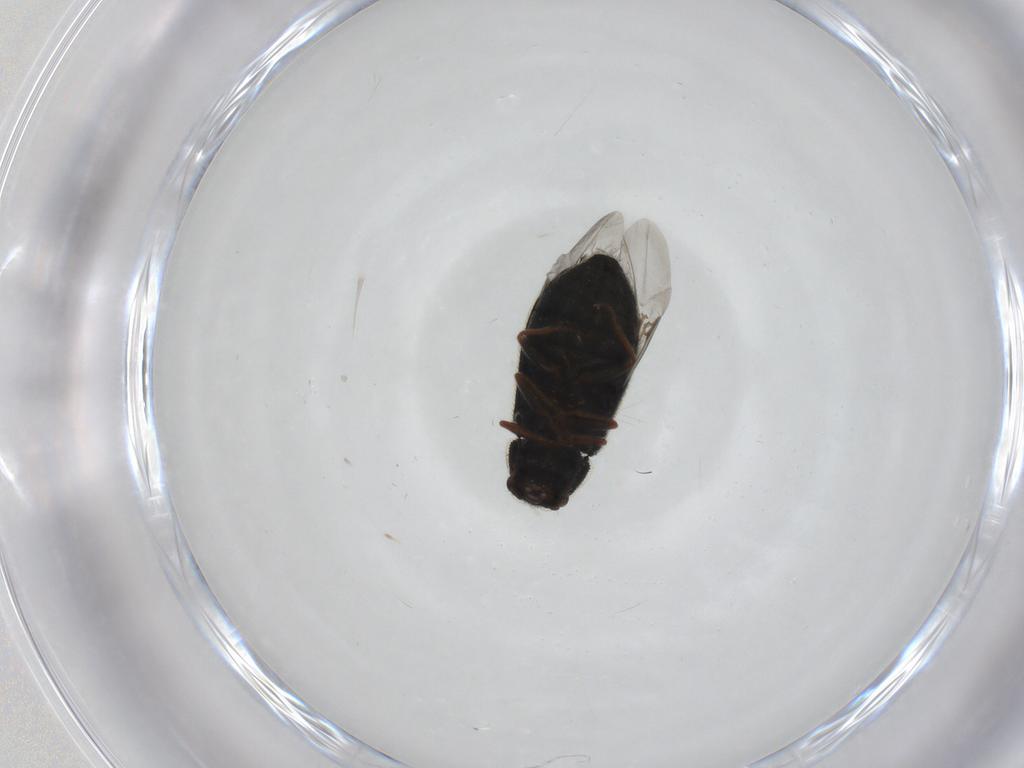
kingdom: Animalia
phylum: Arthropoda
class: Insecta
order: Coleoptera
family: Melyridae
